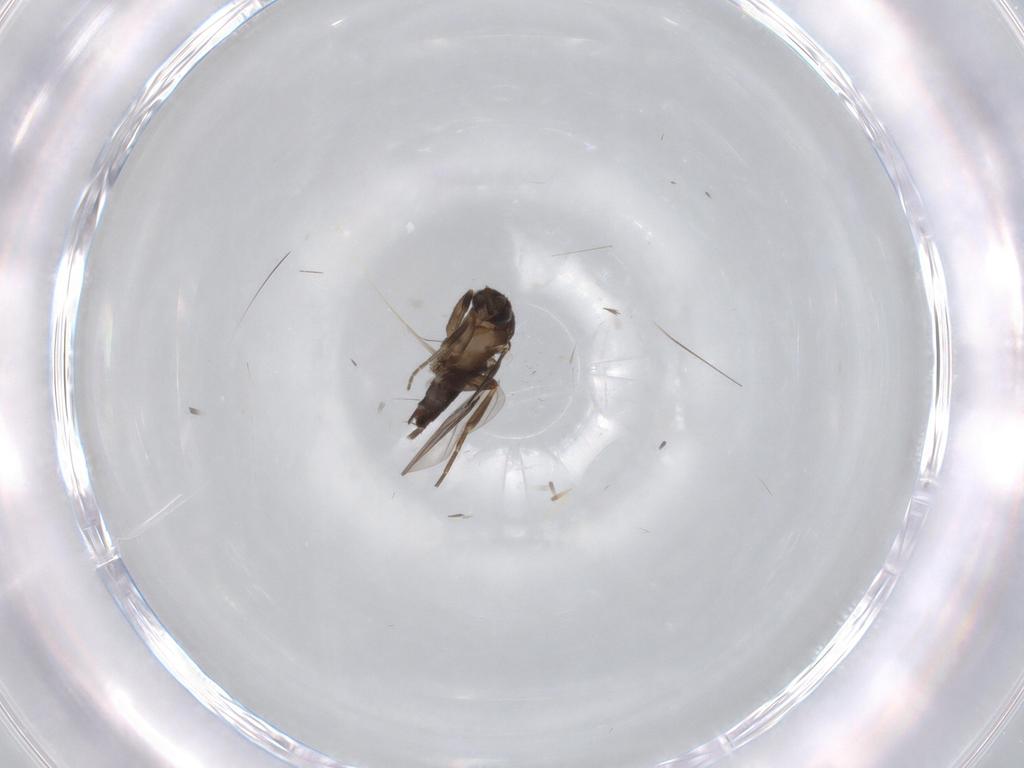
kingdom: Animalia
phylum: Arthropoda
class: Insecta
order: Diptera
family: Phoridae
